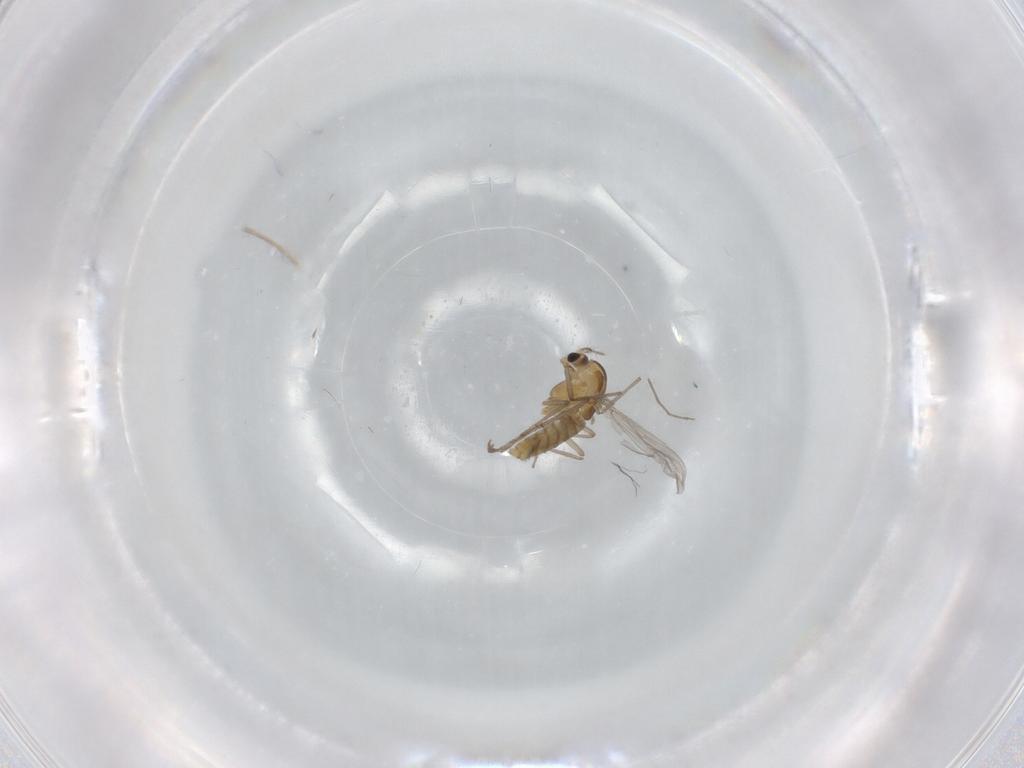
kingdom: Animalia
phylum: Arthropoda
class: Insecta
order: Diptera
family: Chironomidae
